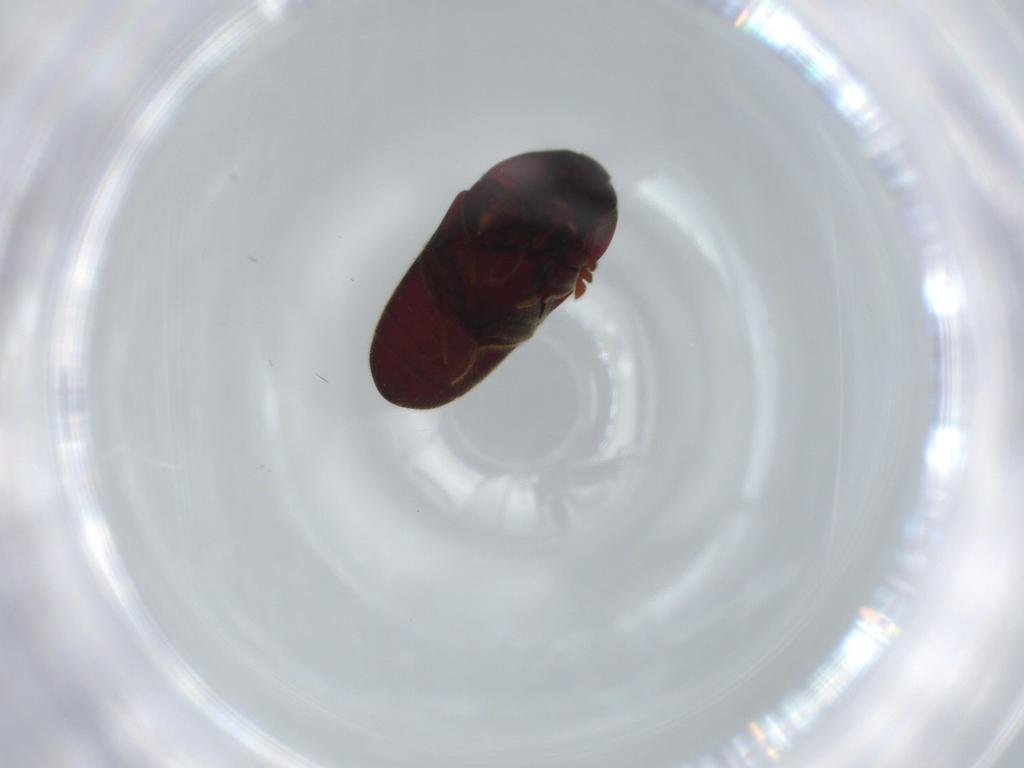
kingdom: Animalia
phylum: Arthropoda
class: Insecta
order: Coleoptera
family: Throscidae
